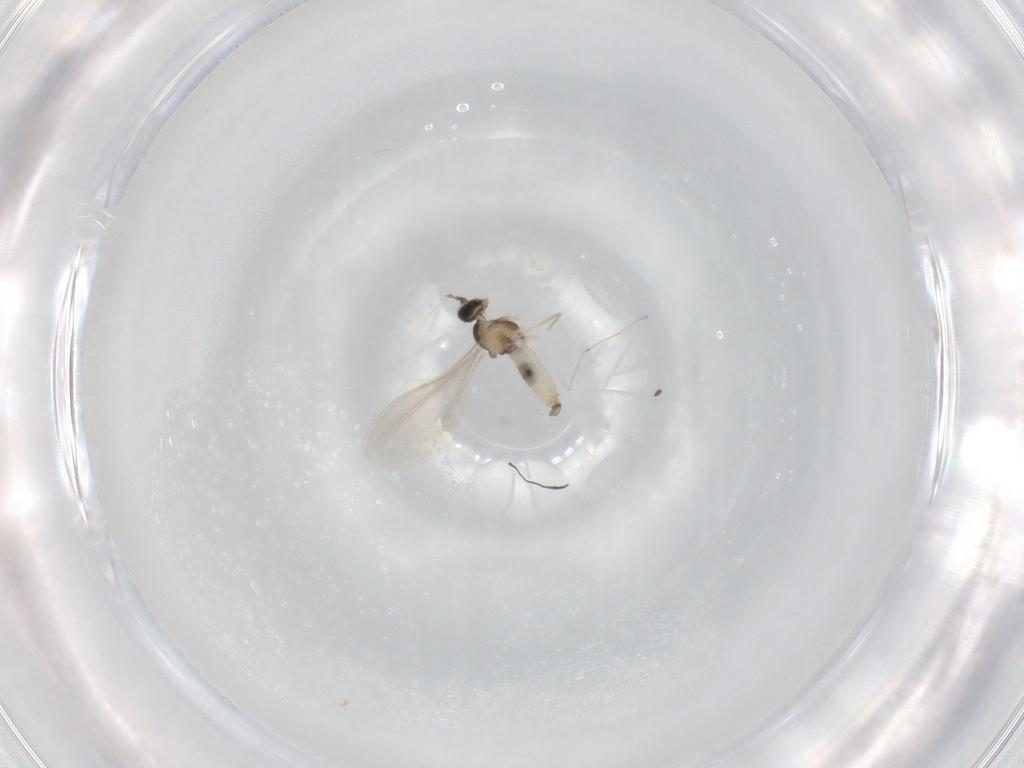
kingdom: Animalia
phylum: Arthropoda
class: Insecta
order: Diptera
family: Cecidomyiidae
